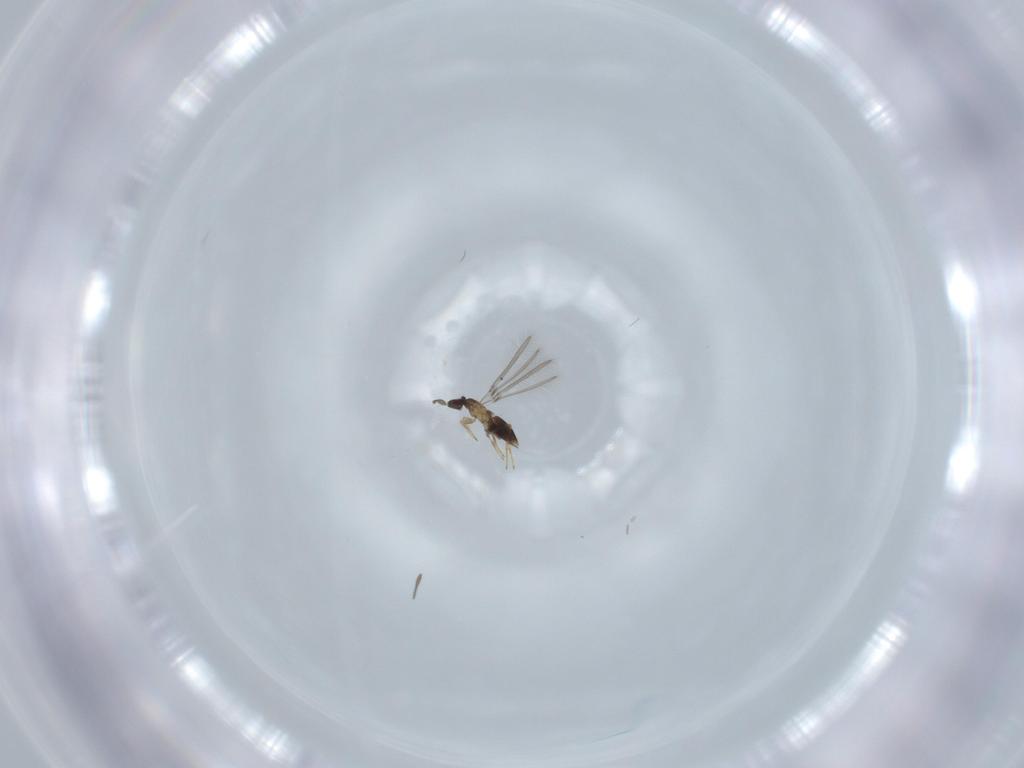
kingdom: Animalia
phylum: Arthropoda
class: Insecta
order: Hymenoptera
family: Mymaridae
